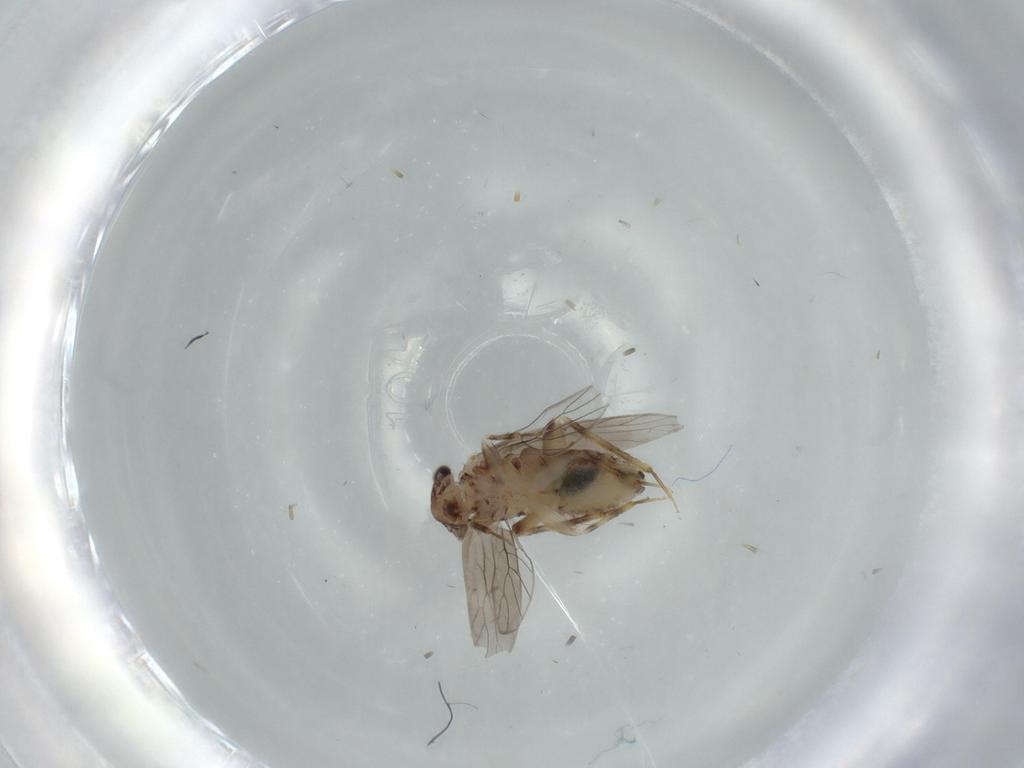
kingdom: Animalia
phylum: Arthropoda
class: Insecta
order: Psocodea
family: Lepidopsocidae
